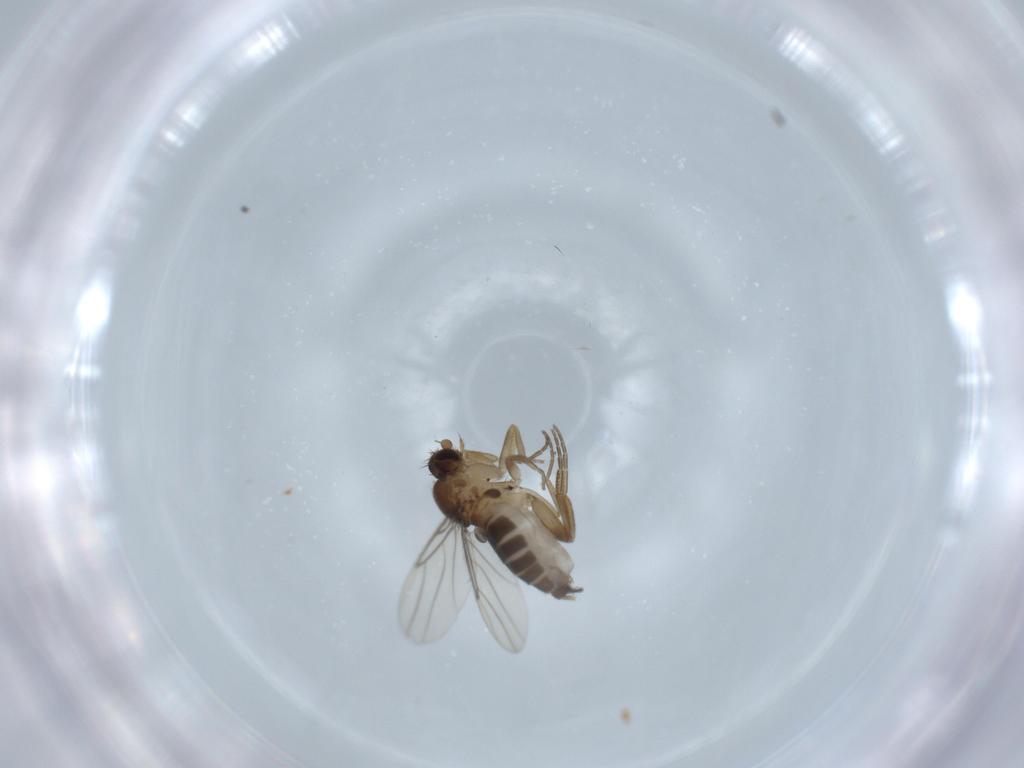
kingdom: Animalia
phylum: Arthropoda
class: Insecta
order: Diptera
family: Phoridae
